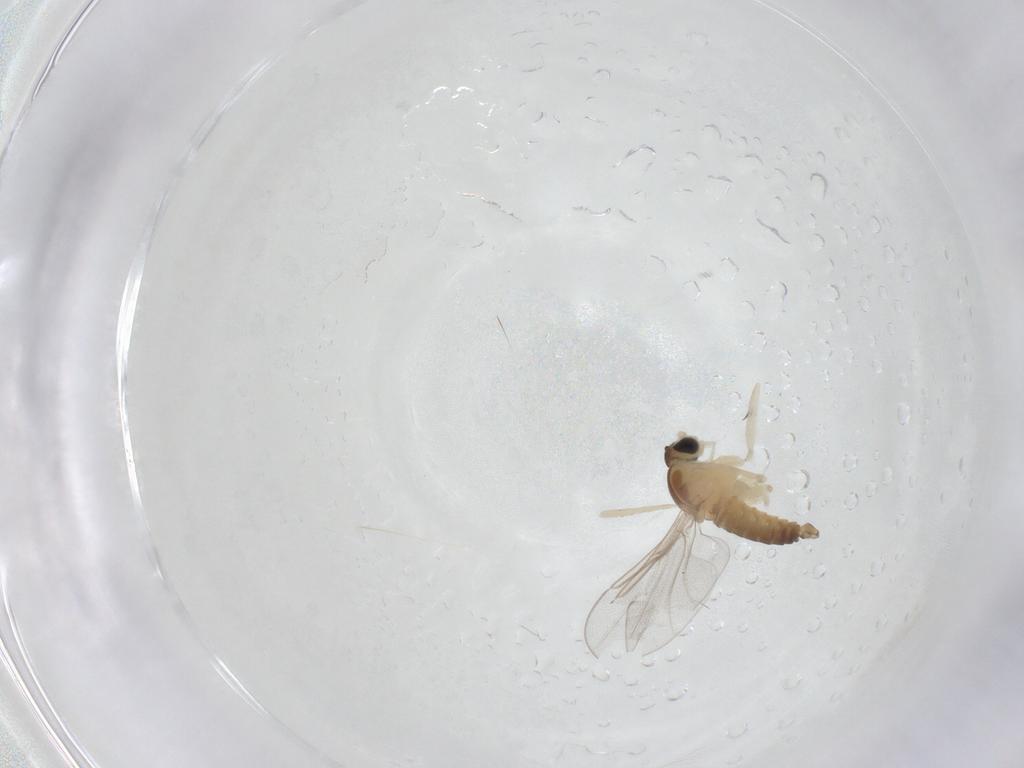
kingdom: Animalia
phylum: Arthropoda
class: Insecta
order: Diptera
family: Cecidomyiidae
